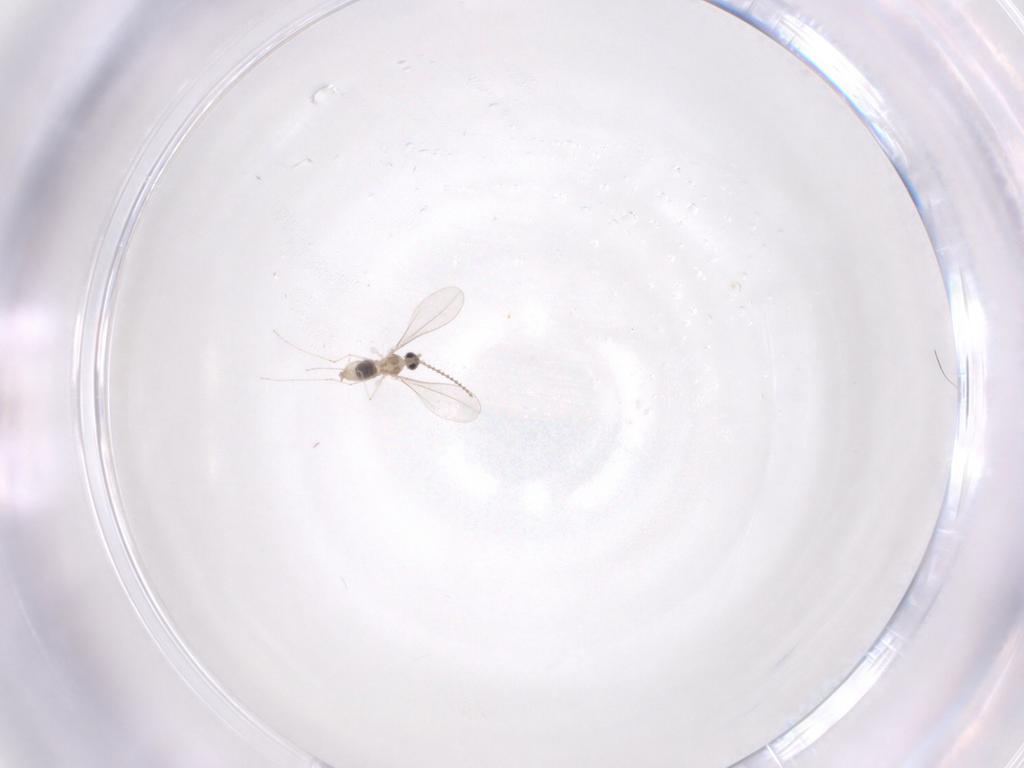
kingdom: Animalia
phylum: Arthropoda
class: Insecta
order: Diptera
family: Cecidomyiidae
